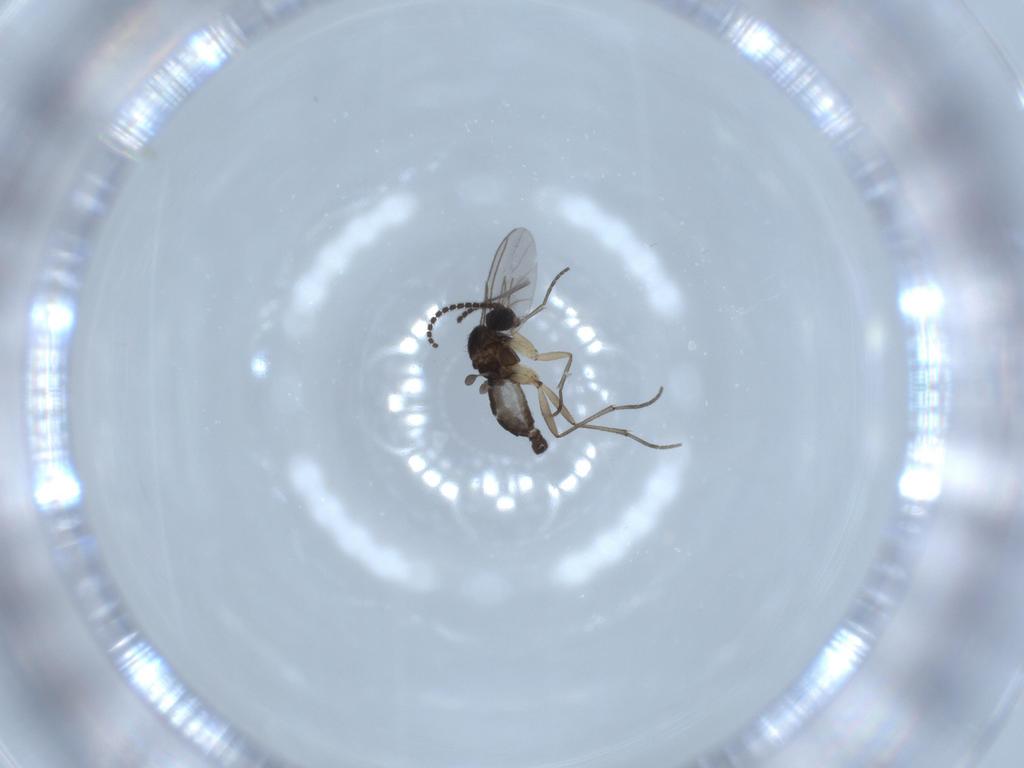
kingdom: Animalia
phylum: Arthropoda
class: Insecta
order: Diptera
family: Sciaridae
